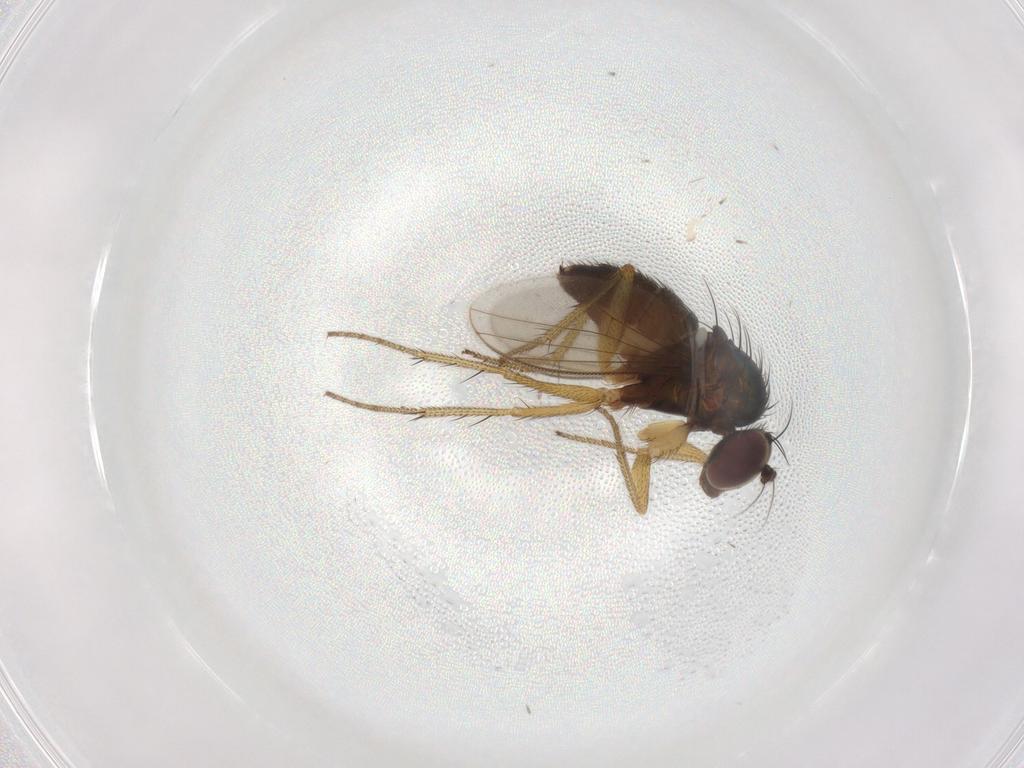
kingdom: Animalia
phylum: Arthropoda
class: Insecta
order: Diptera
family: Dolichopodidae
